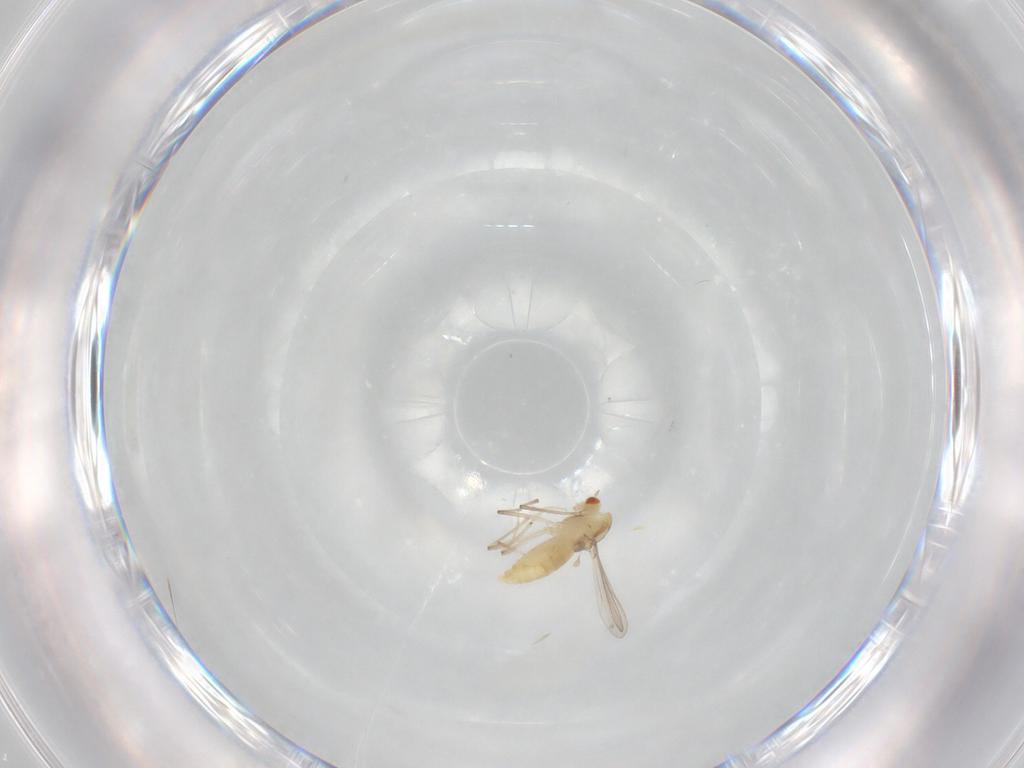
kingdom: Animalia
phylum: Arthropoda
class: Insecta
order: Diptera
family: Chironomidae
